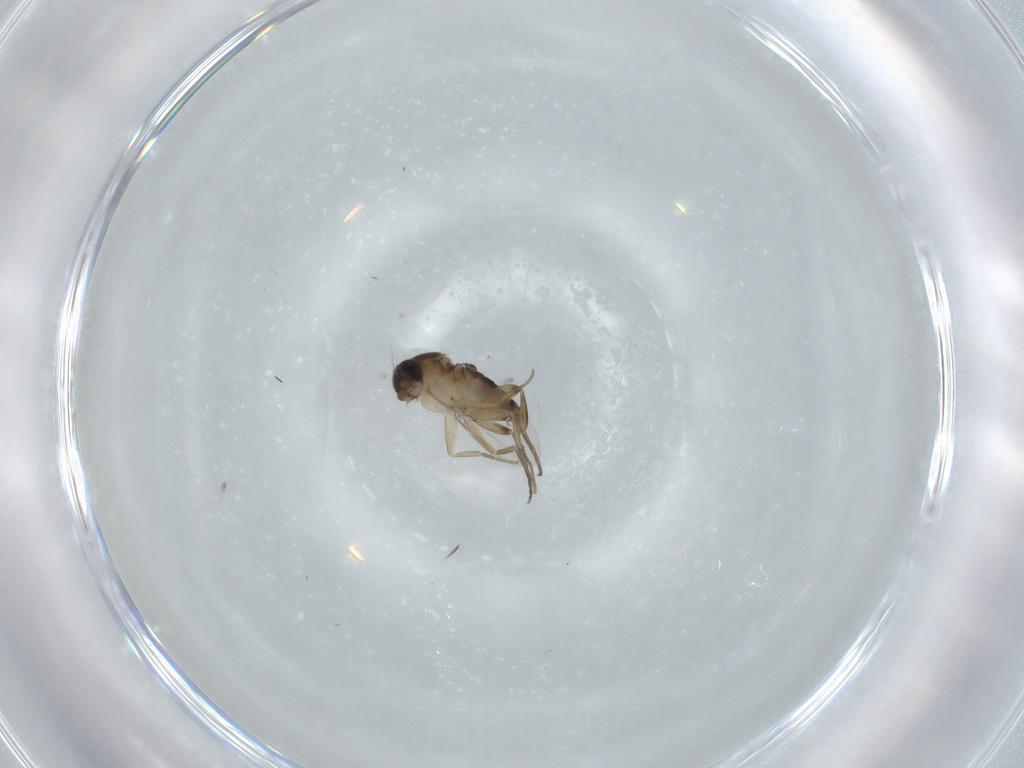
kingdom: Animalia
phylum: Arthropoda
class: Insecta
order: Diptera
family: Phoridae
